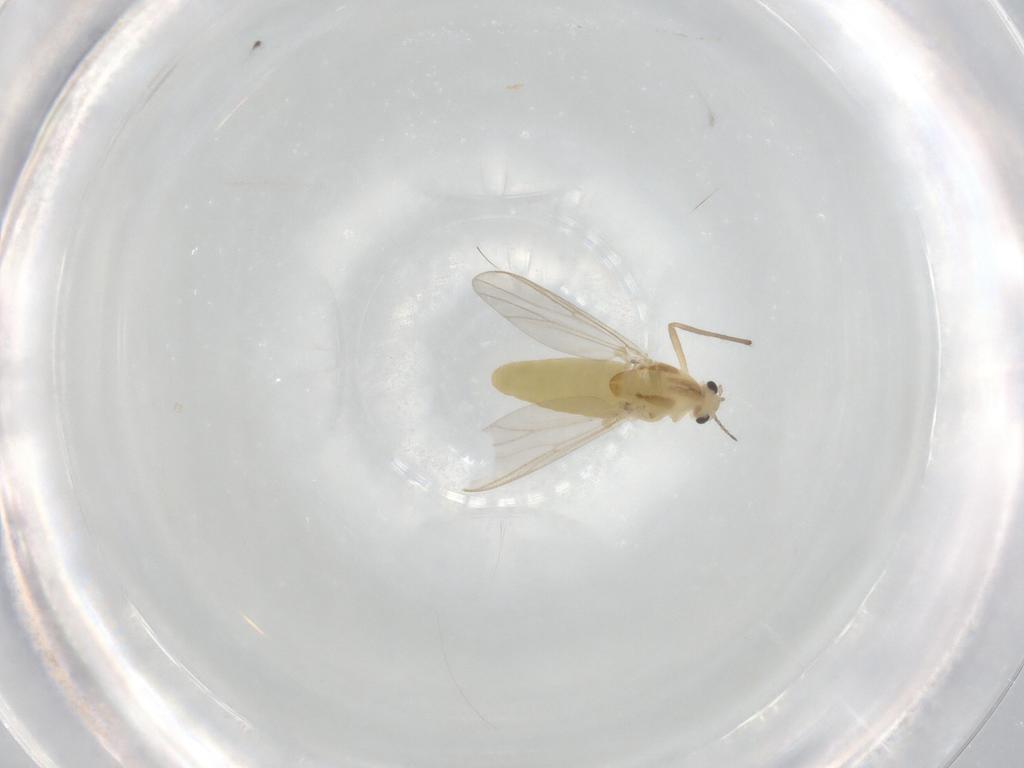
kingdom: Animalia
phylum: Arthropoda
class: Insecta
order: Diptera
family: Chironomidae
